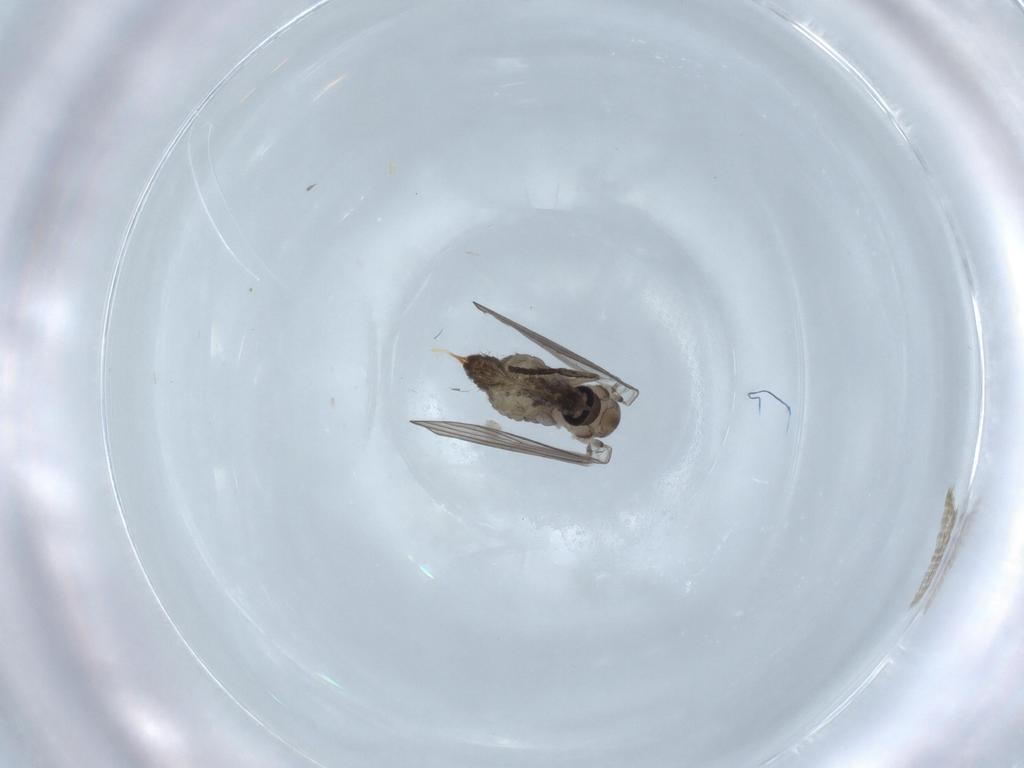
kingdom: Animalia
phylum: Arthropoda
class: Insecta
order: Diptera
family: Psychodidae
